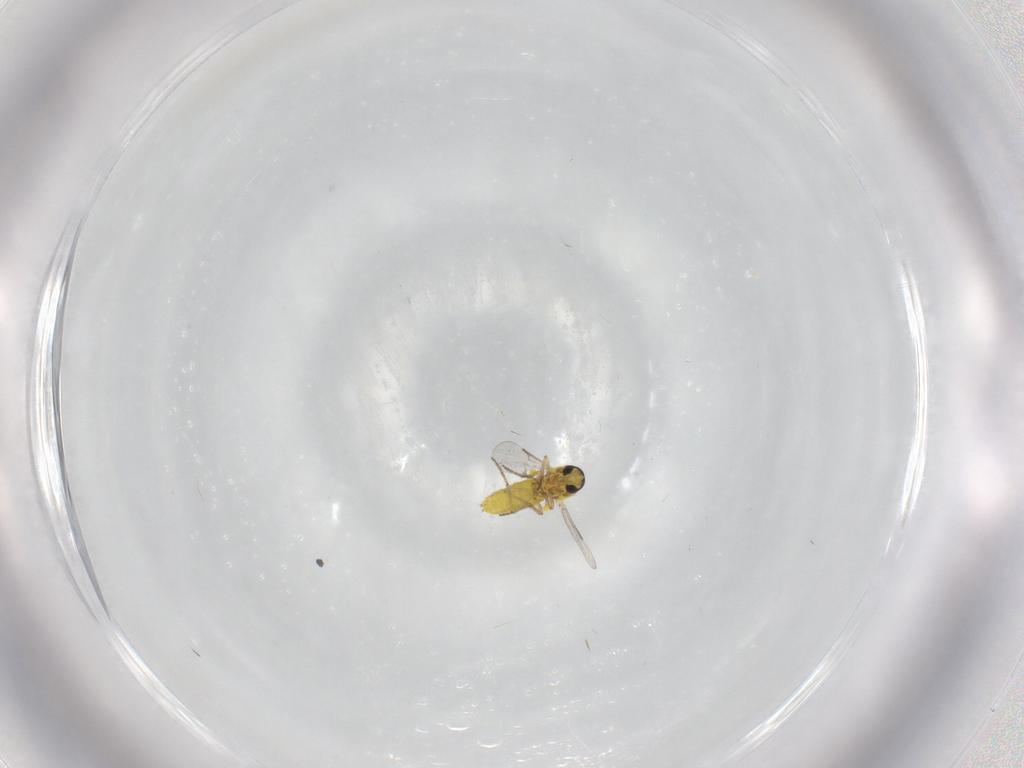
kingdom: Animalia
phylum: Arthropoda
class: Insecta
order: Diptera
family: Ceratopogonidae
